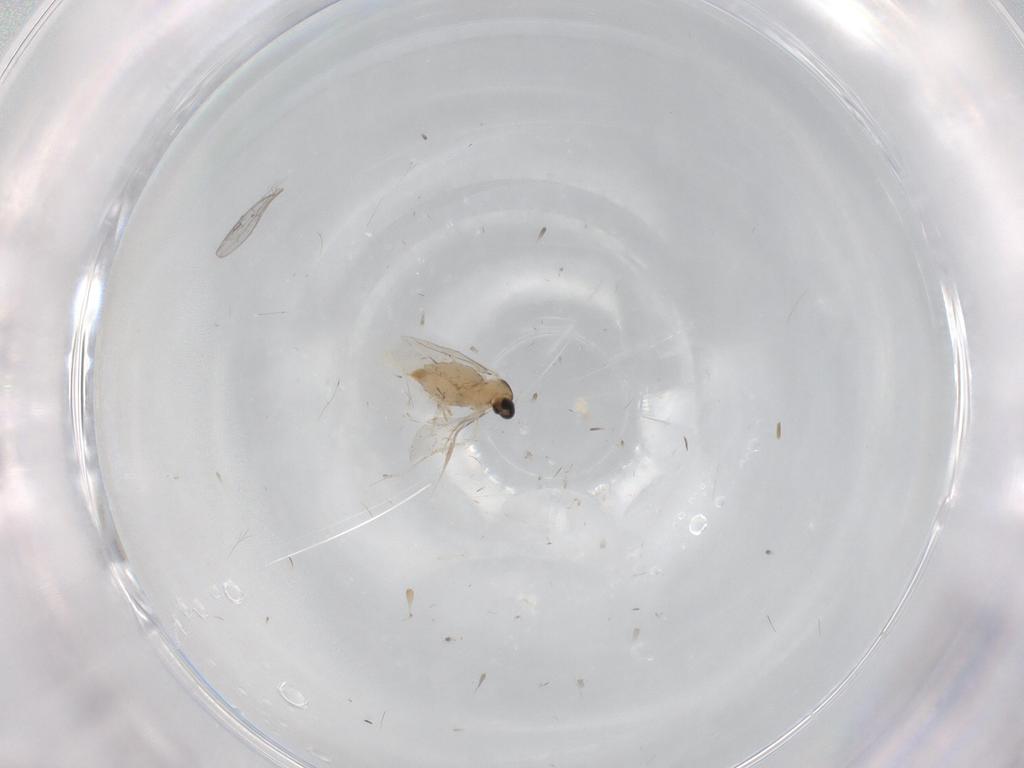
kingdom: Animalia
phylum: Arthropoda
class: Insecta
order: Diptera
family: Cecidomyiidae
